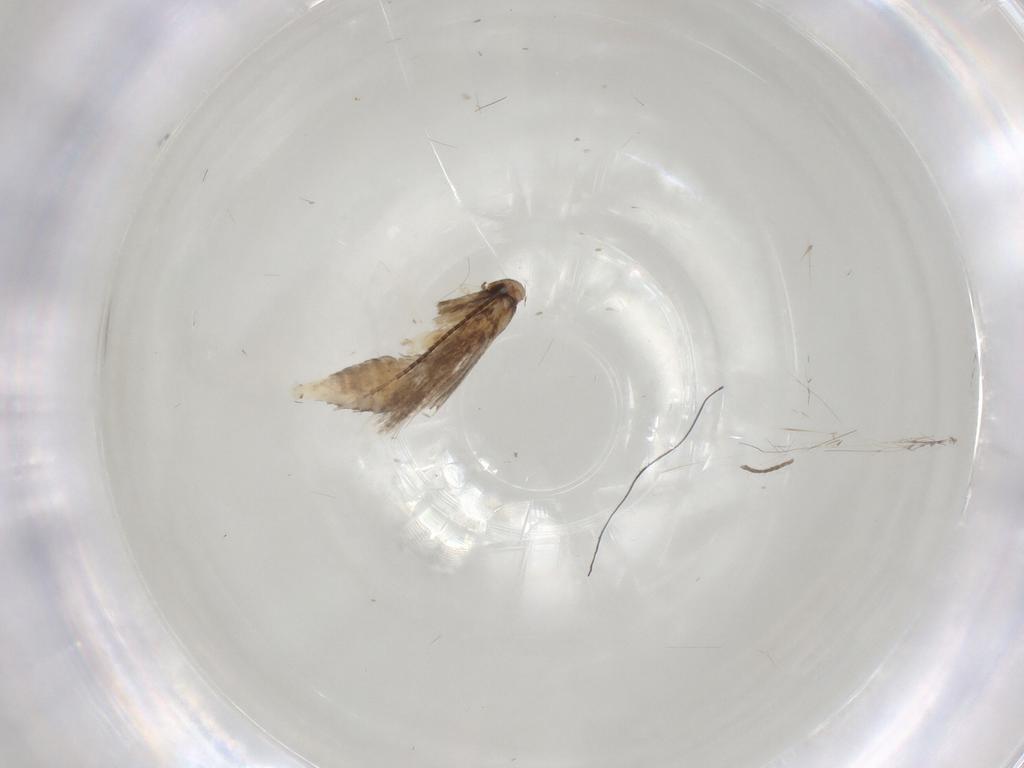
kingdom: Animalia
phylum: Arthropoda
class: Insecta
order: Lepidoptera
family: Gracillariidae
